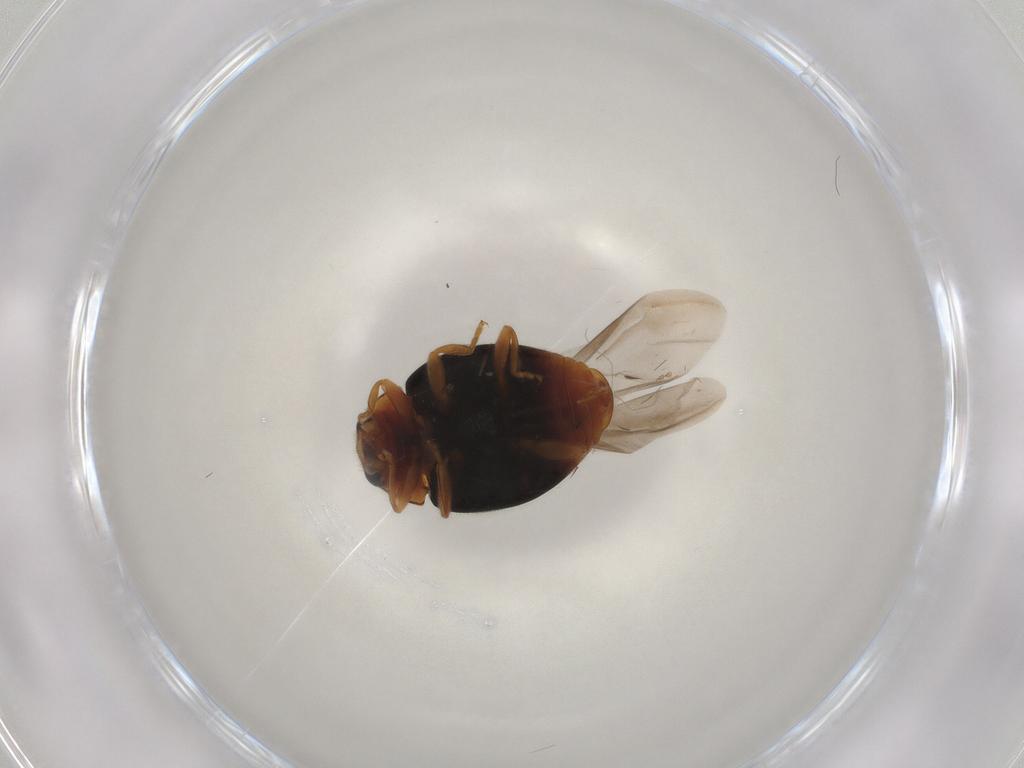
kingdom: Animalia
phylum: Arthropoda
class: Insecta
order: Coleoptera
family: Coccinellidae
